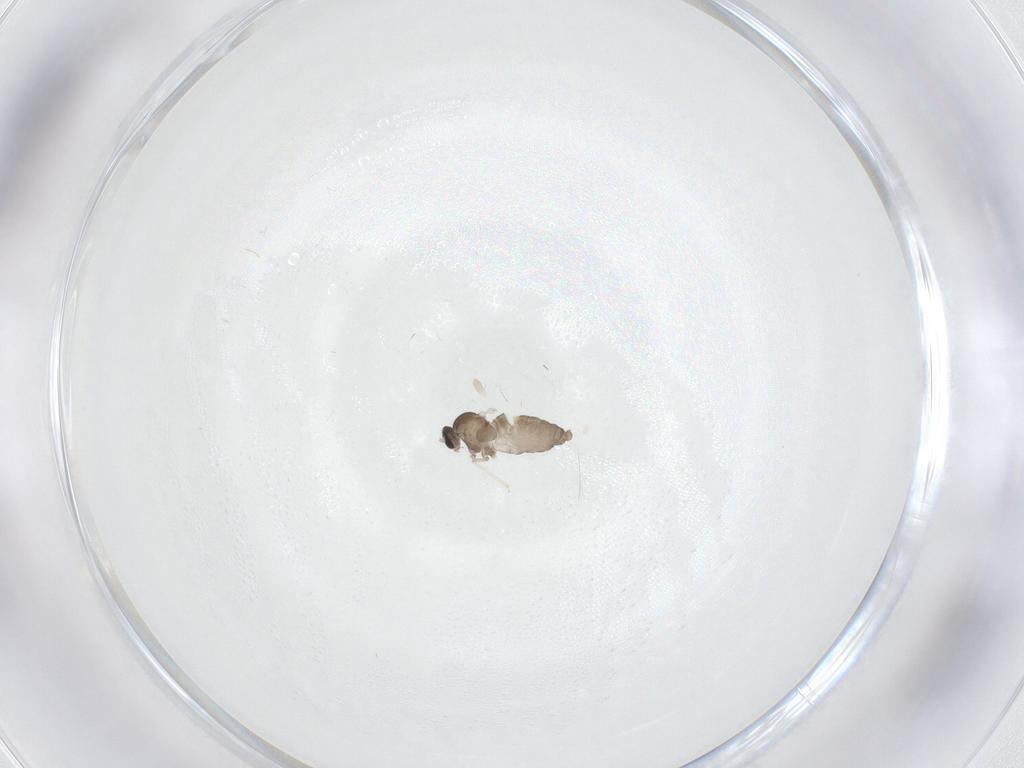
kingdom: Animalia
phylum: Arthropoda
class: Insecta
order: Diptera
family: Cecidomyiidae
